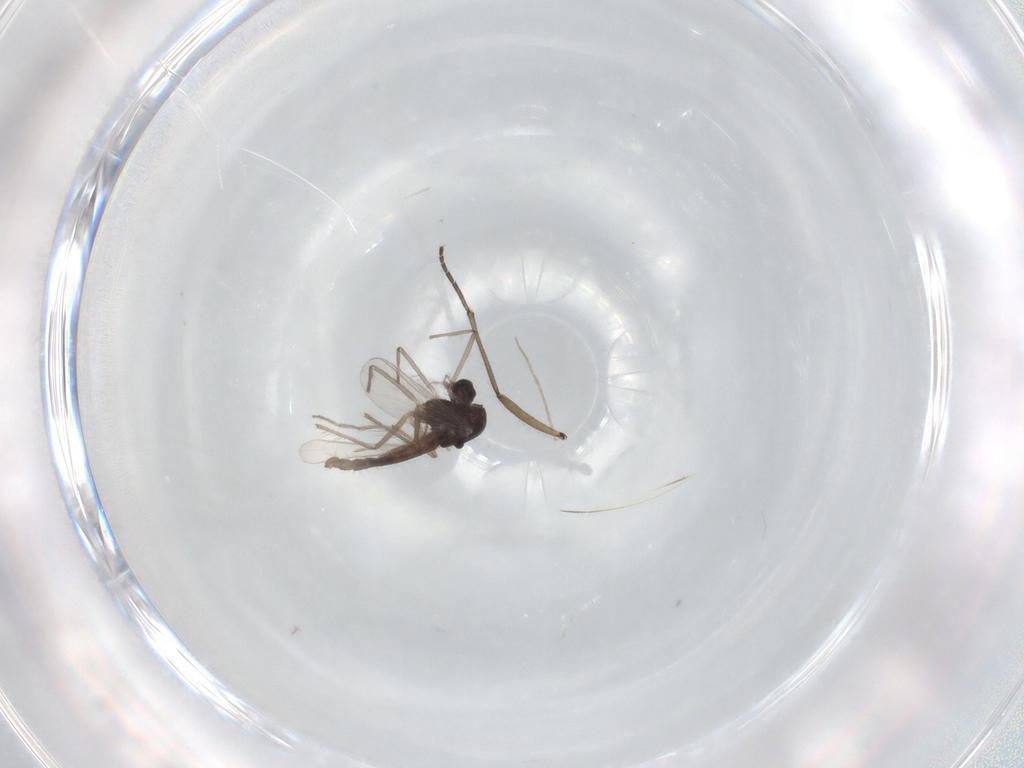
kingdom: Animalia
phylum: Arthropoda
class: Insecta
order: Diptera
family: Chironomidae
